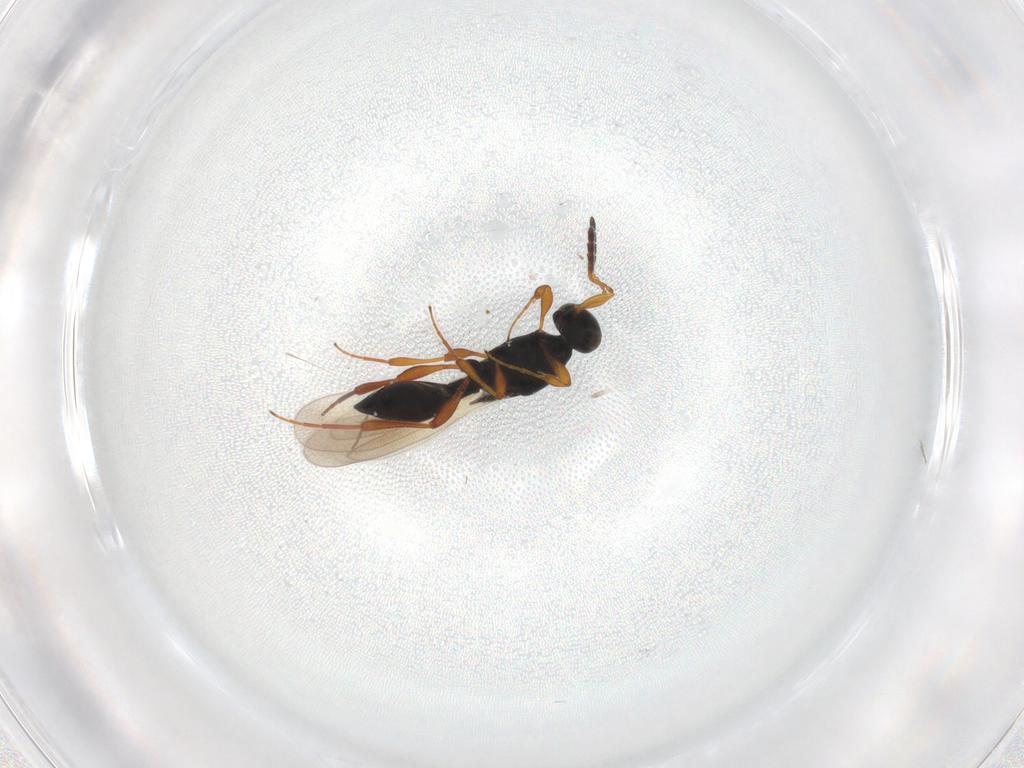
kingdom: Animalia
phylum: Arthropoda
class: Insecta
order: Hymenoptera
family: Platygastridae
